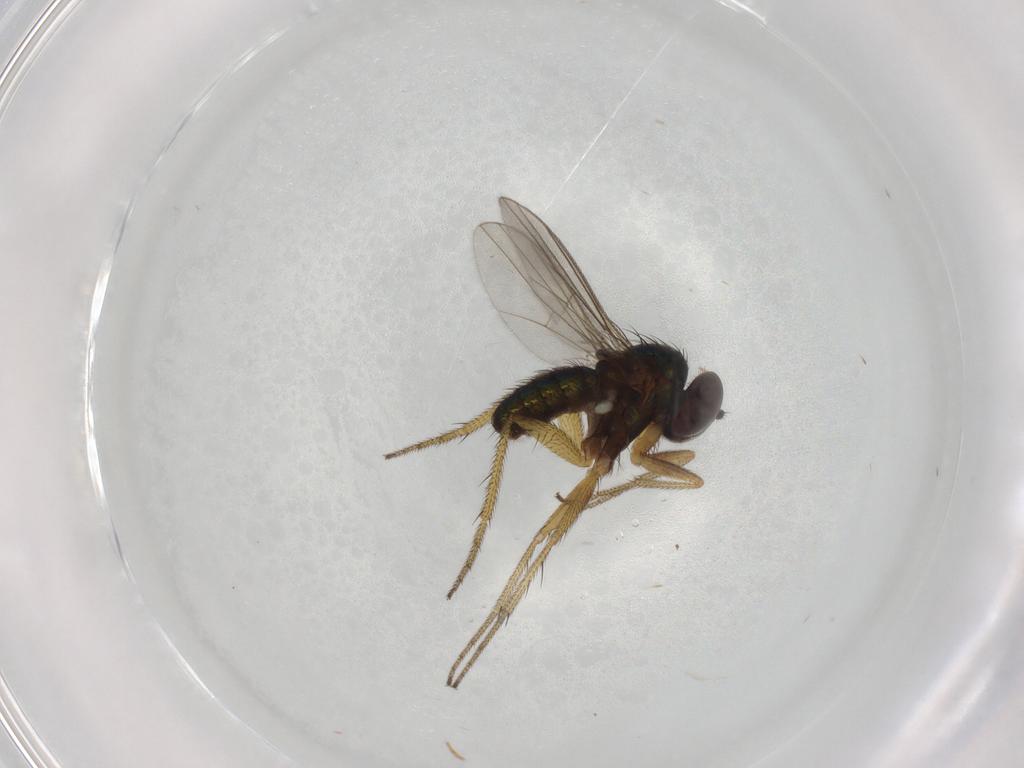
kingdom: Animalia
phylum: Arthropoda
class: Insecta
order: Diptera
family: Dolichopodidae
